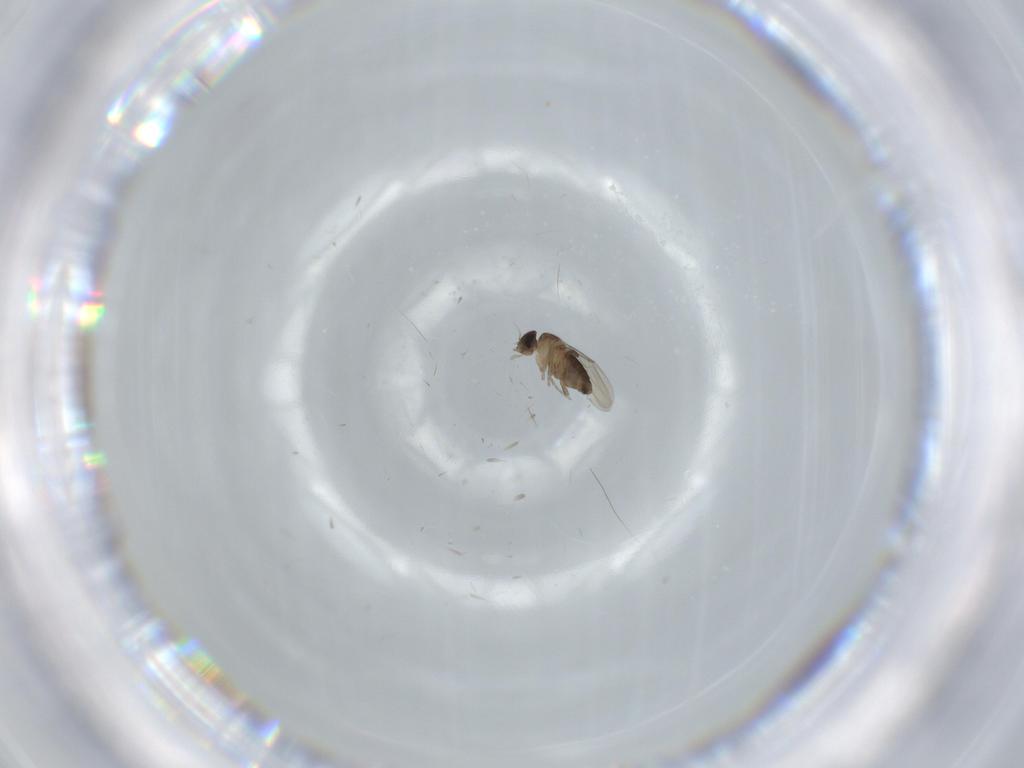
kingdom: Animalia
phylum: Arthropoda
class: Insecta
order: Diptera
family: Phoridae
